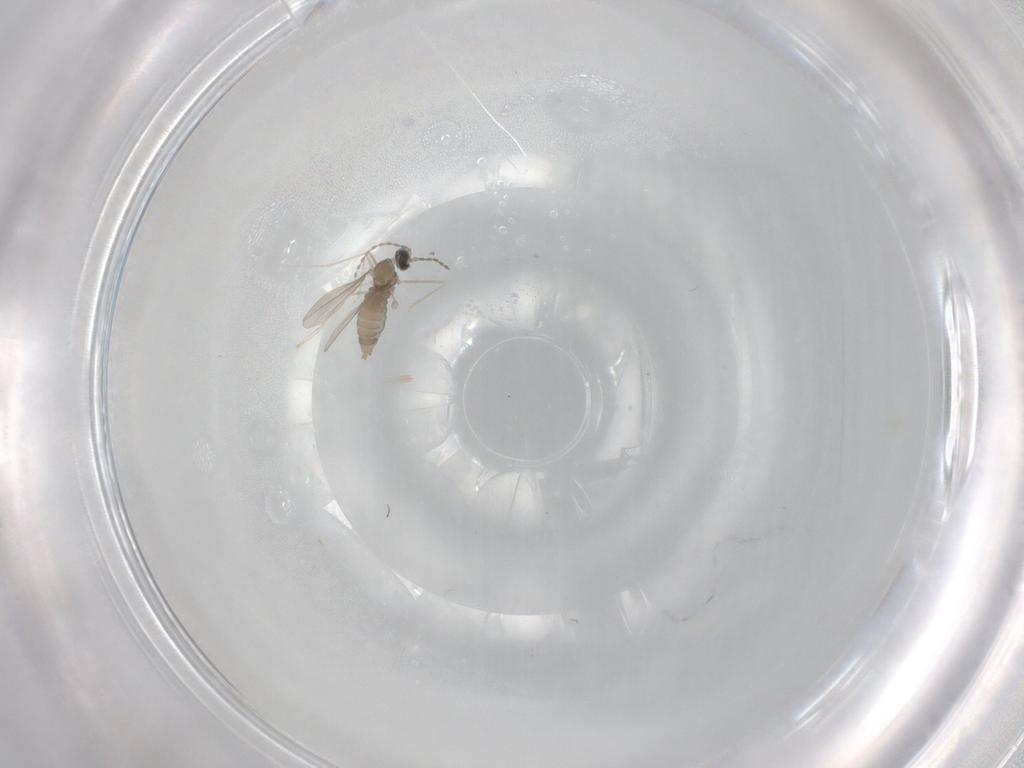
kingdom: Animalia
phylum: Arthropoda
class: Insecta
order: Diptera
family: Cecidomyiidae
